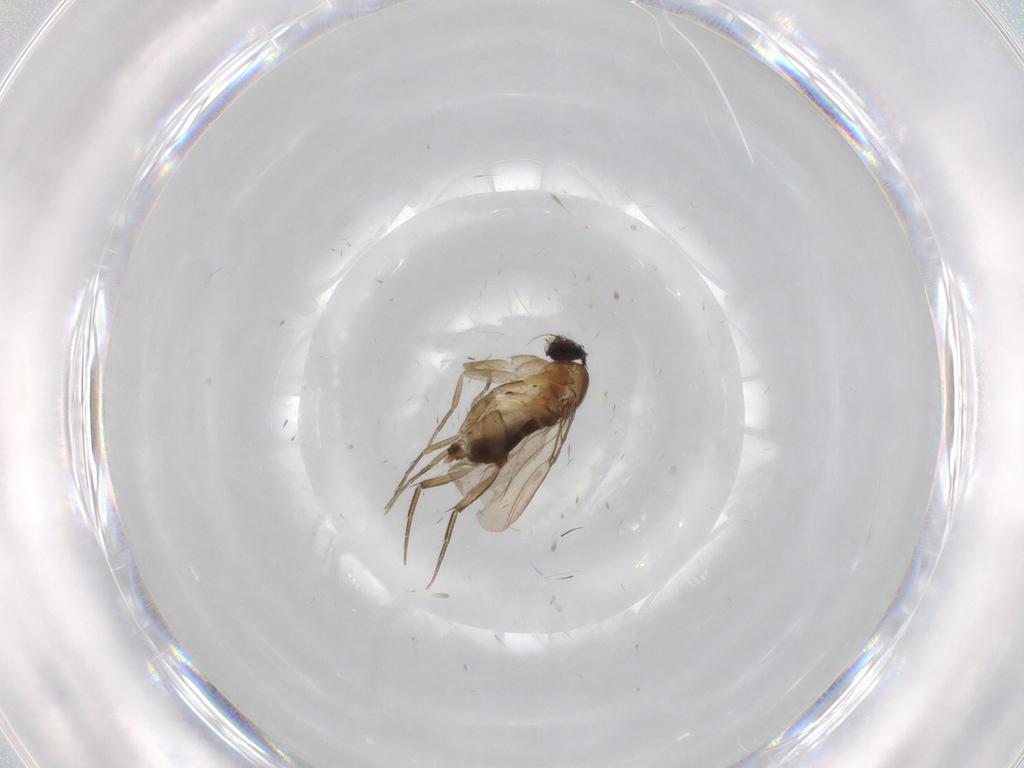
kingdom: Animalia
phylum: Arthropoda
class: Insecta
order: Diptera
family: Phoridae
